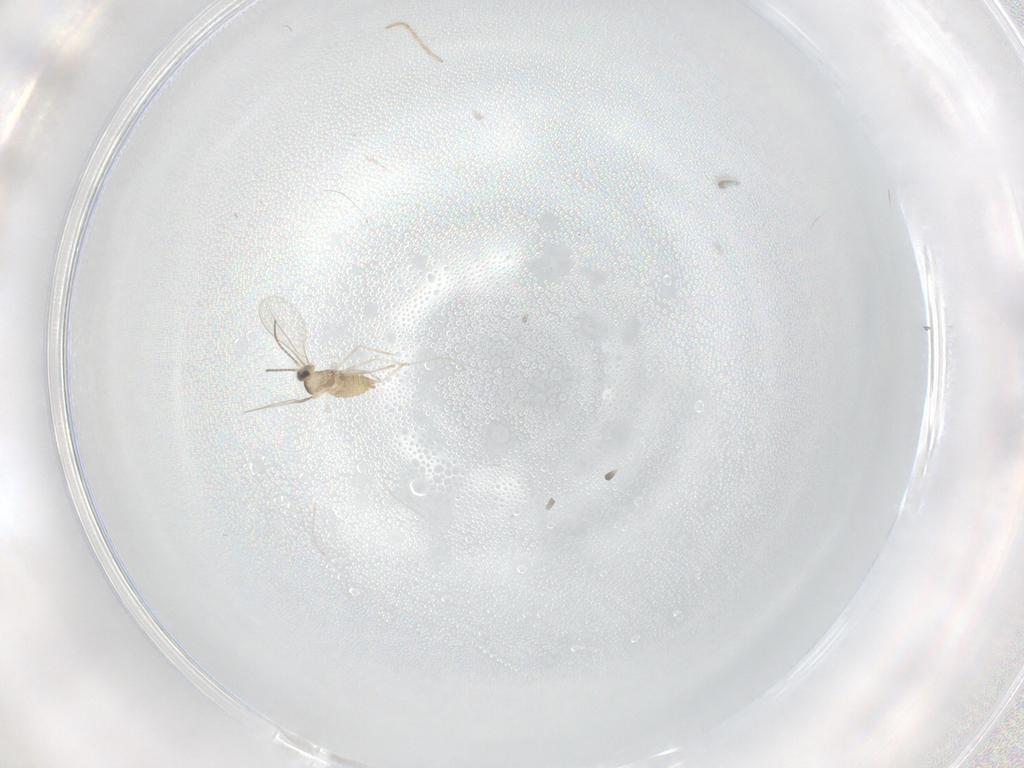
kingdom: Animalia
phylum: Arthropoda
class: Insecta
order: Diptera
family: Cecidomyiidae
